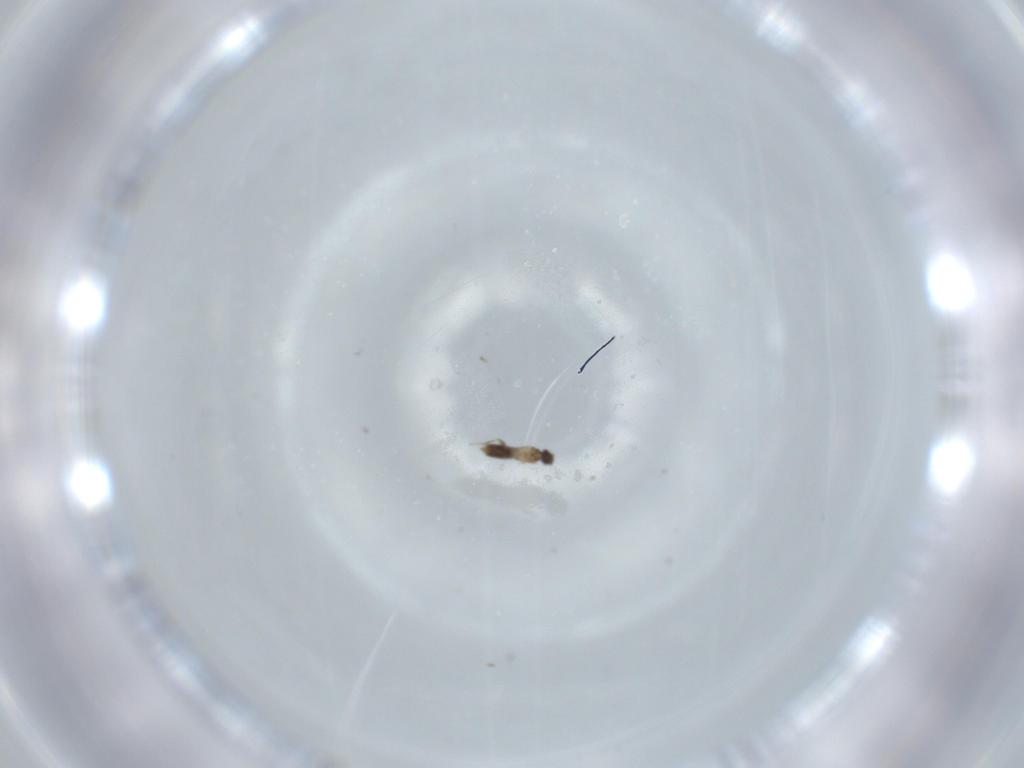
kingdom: Animalia
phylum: Arthropoda
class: Insecta
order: Hymenoptera
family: Mymaridae
